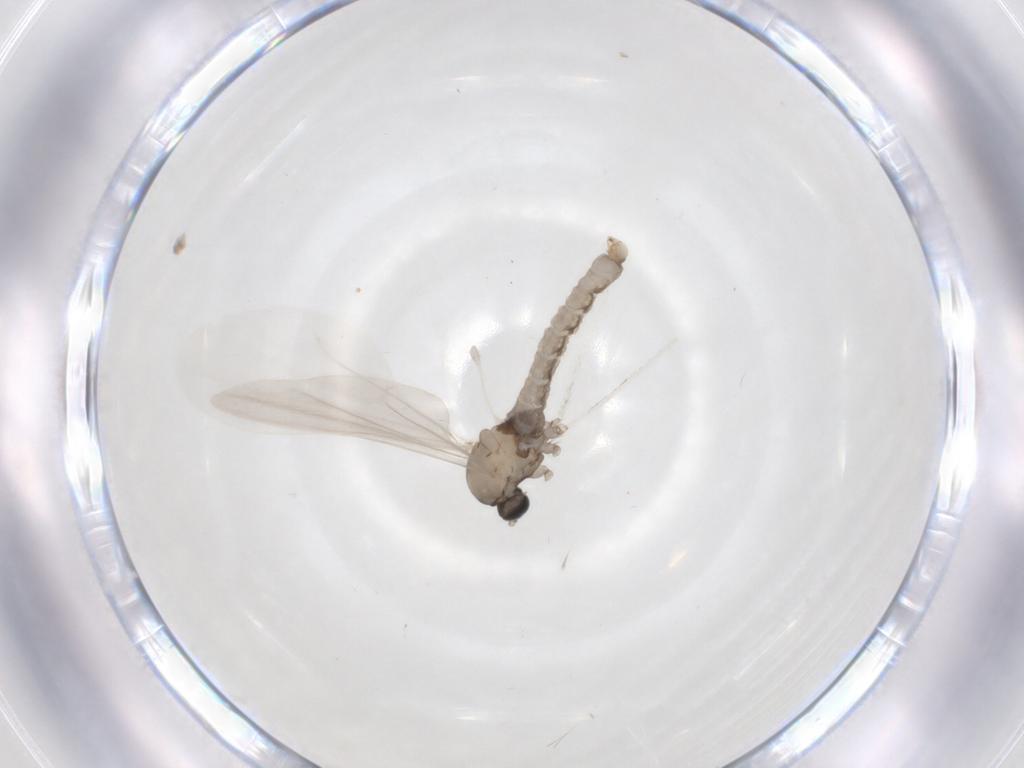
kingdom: Animalia
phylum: Arthropoda
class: Insecta
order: Diptera
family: Cecidomyiidae
